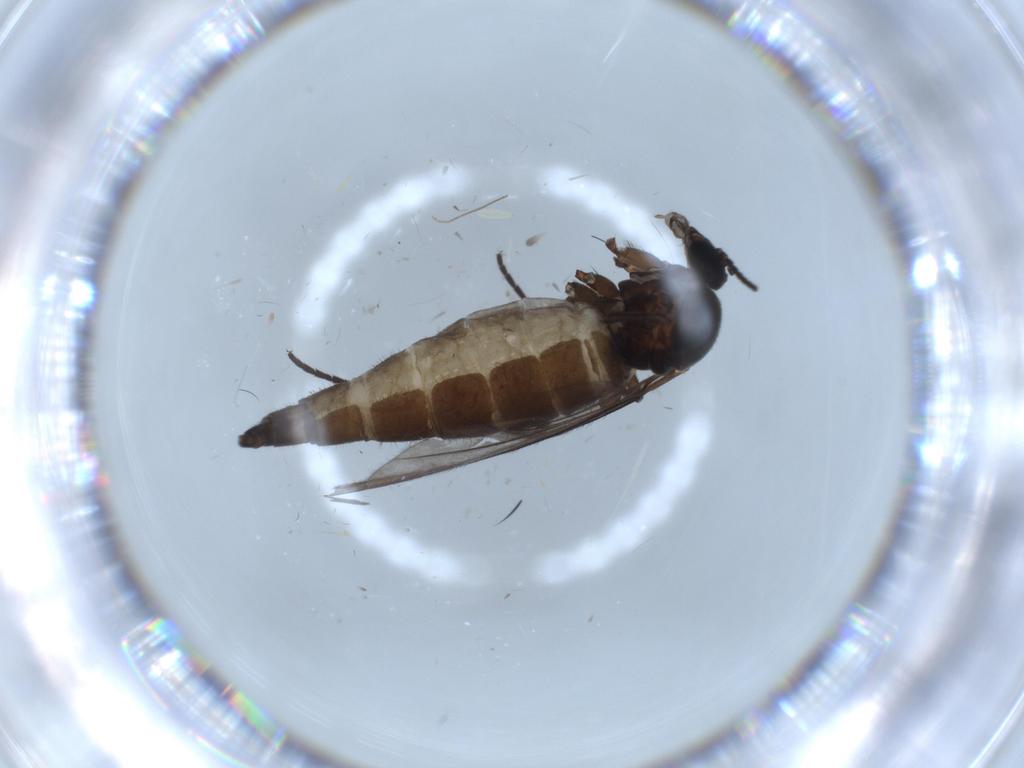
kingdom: Animalia
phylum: Arthropoda
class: Insecta
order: Diptera
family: Sciaridae
